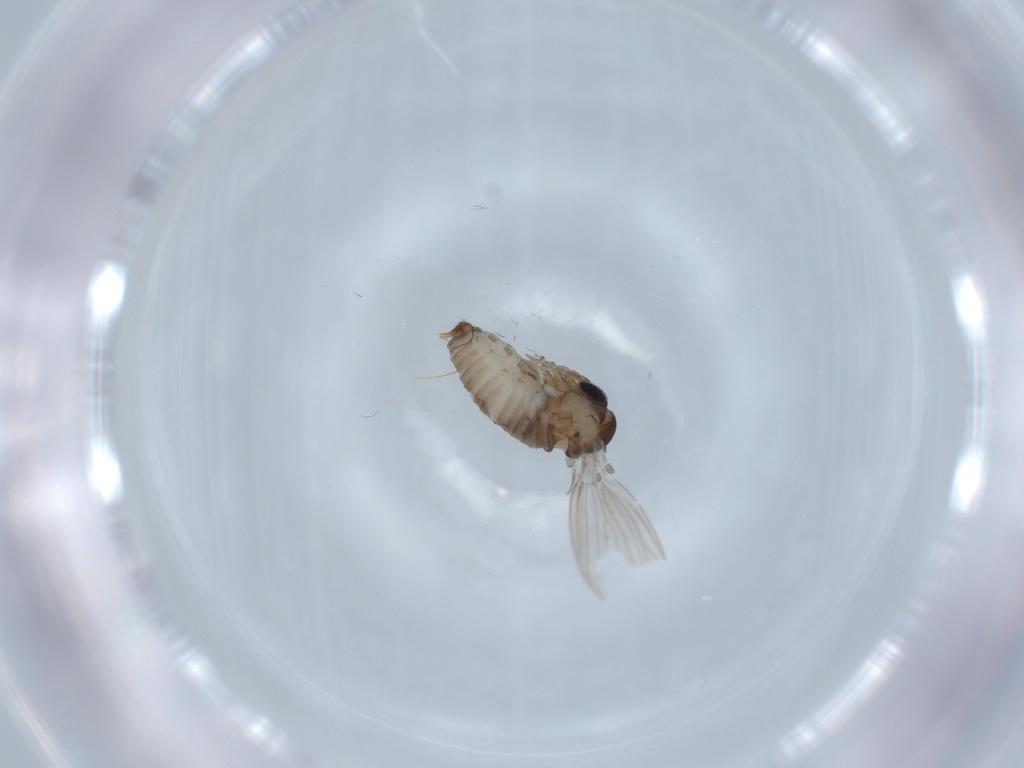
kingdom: Animalia
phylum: Arthropoda
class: Insecta
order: Diptera
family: Psychodidae
